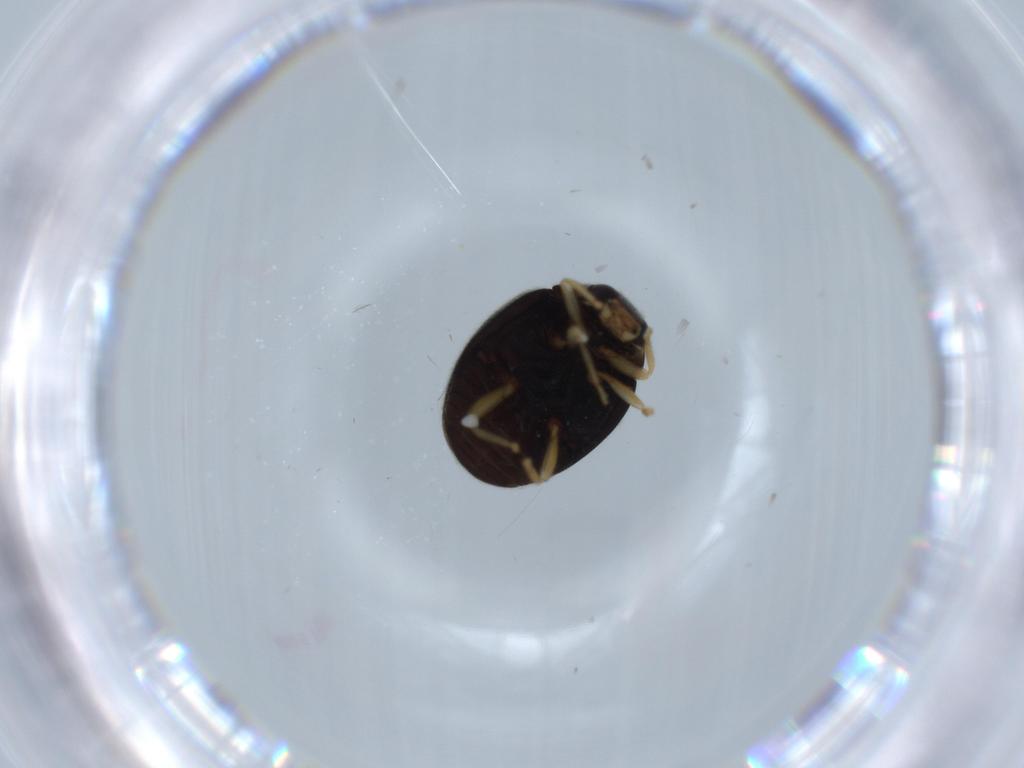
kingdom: Animalia
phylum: Arthropoda
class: Insecta
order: Coleoptera
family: Coccinellidae
